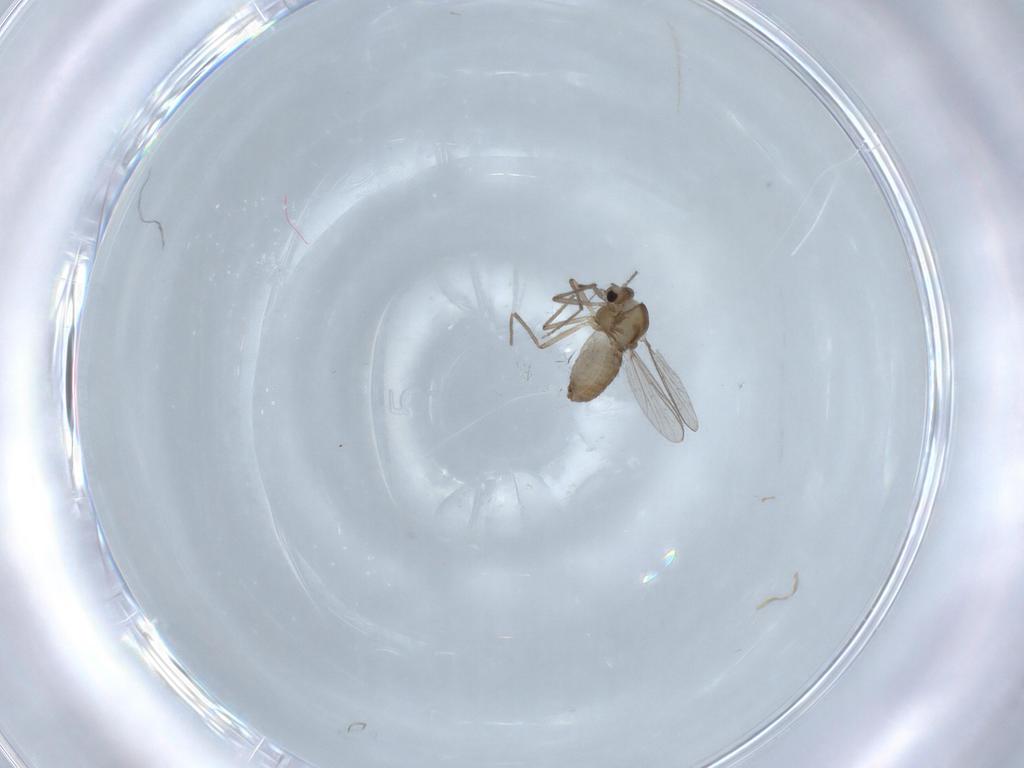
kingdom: Animalia
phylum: Arthropoda
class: Insecta
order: Diptera
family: Chironomidae
